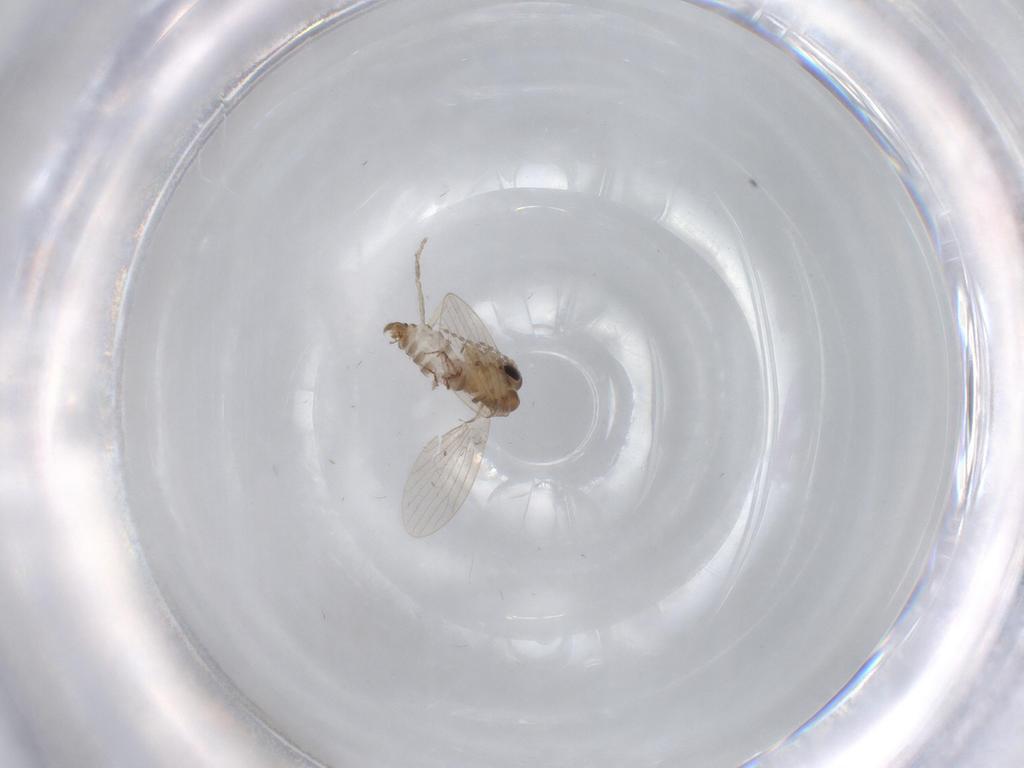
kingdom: Animalia
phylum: Arthropoda
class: Insecta
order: Diptera
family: Psychodidae
